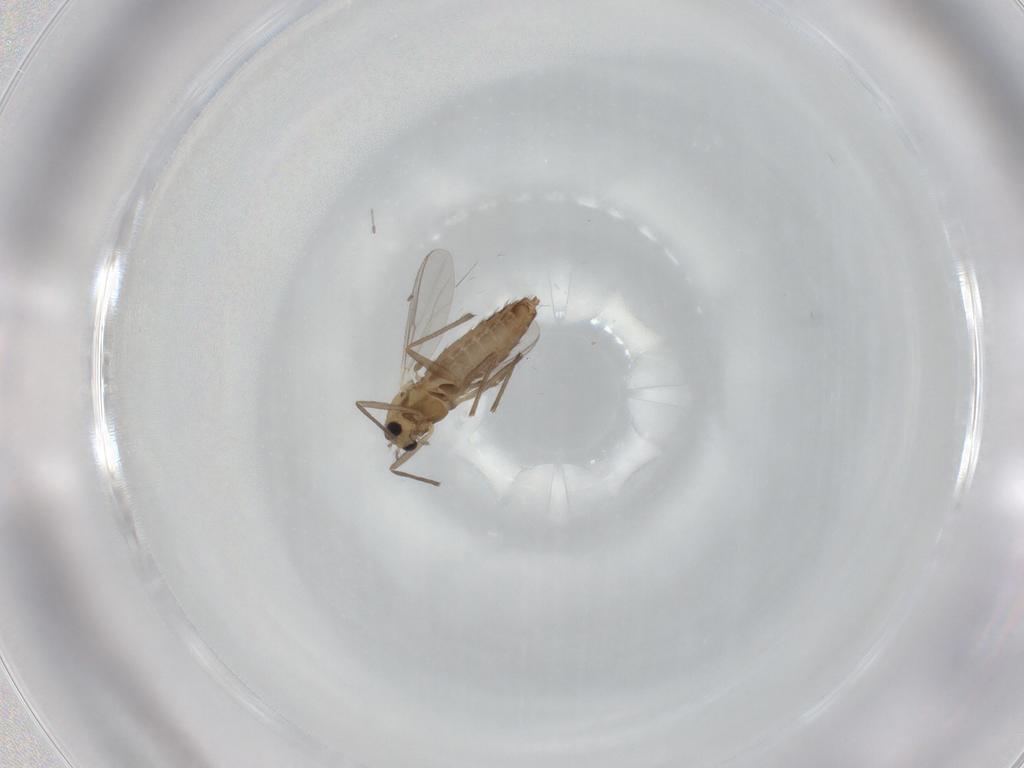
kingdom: Animalia
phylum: Arthropoda
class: Insecta
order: Diptera
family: Chironomidae
